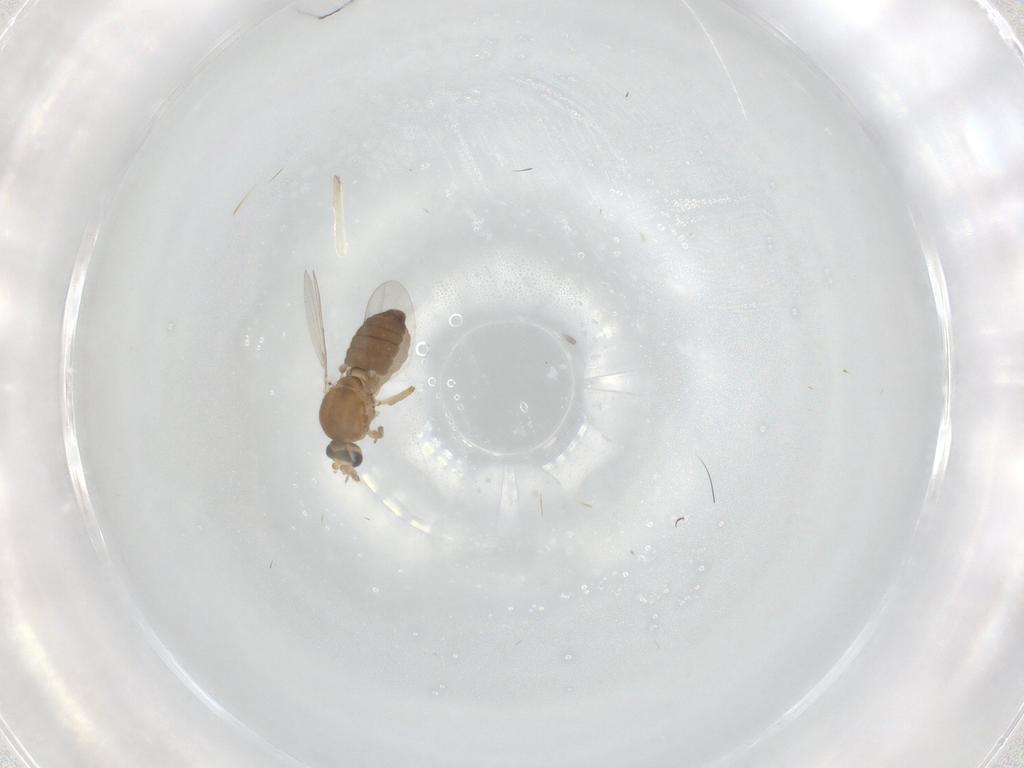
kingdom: Animalia
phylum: Arthropoda
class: Insecta
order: Diptera
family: Ceratopogonidae
